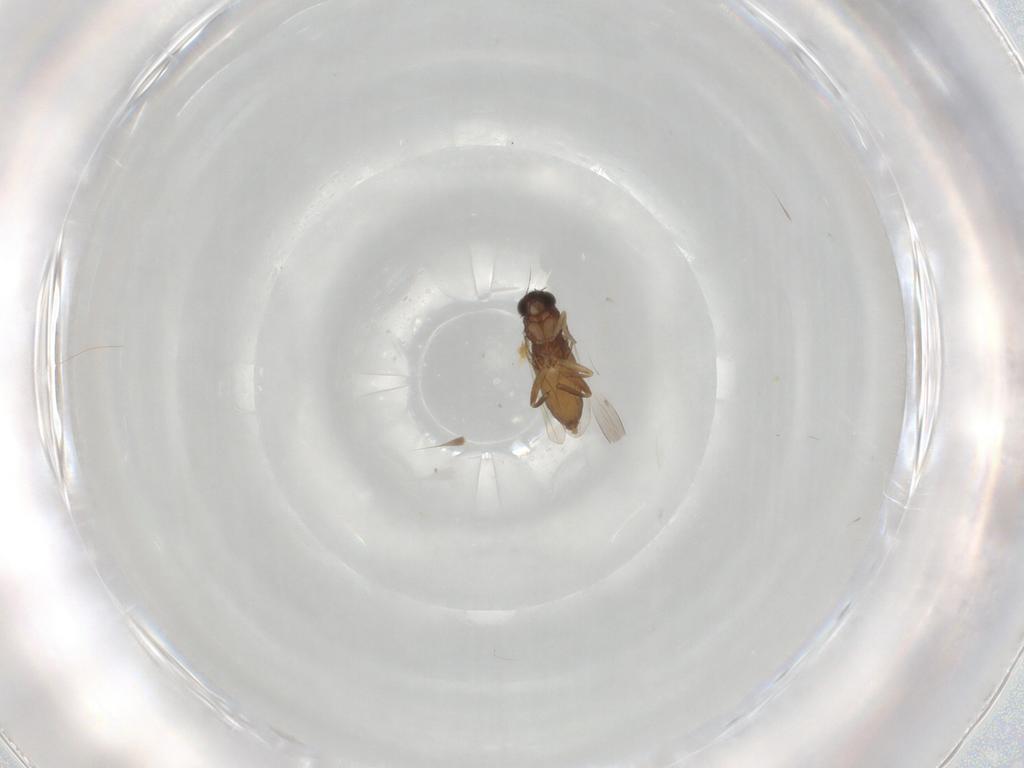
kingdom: Animalia
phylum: Arthropoda
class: Insecta
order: Diptera
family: Phoridae
